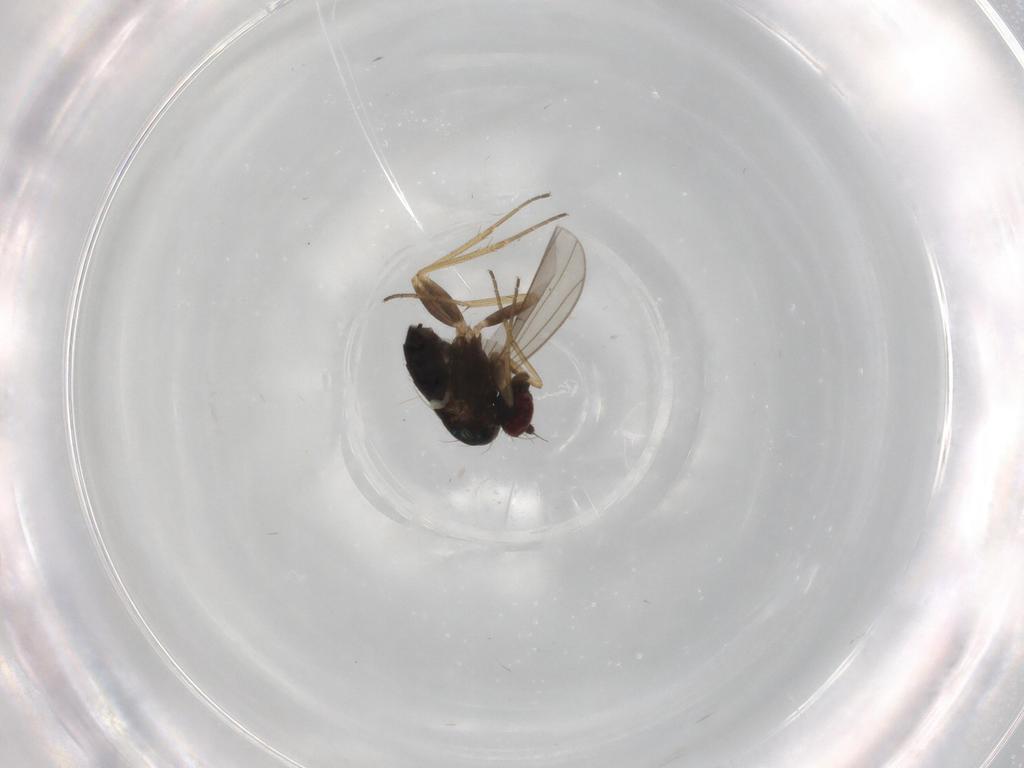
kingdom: Animalia
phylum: Arthropoda
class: Insecta
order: Diptera
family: Dolichopodidae
